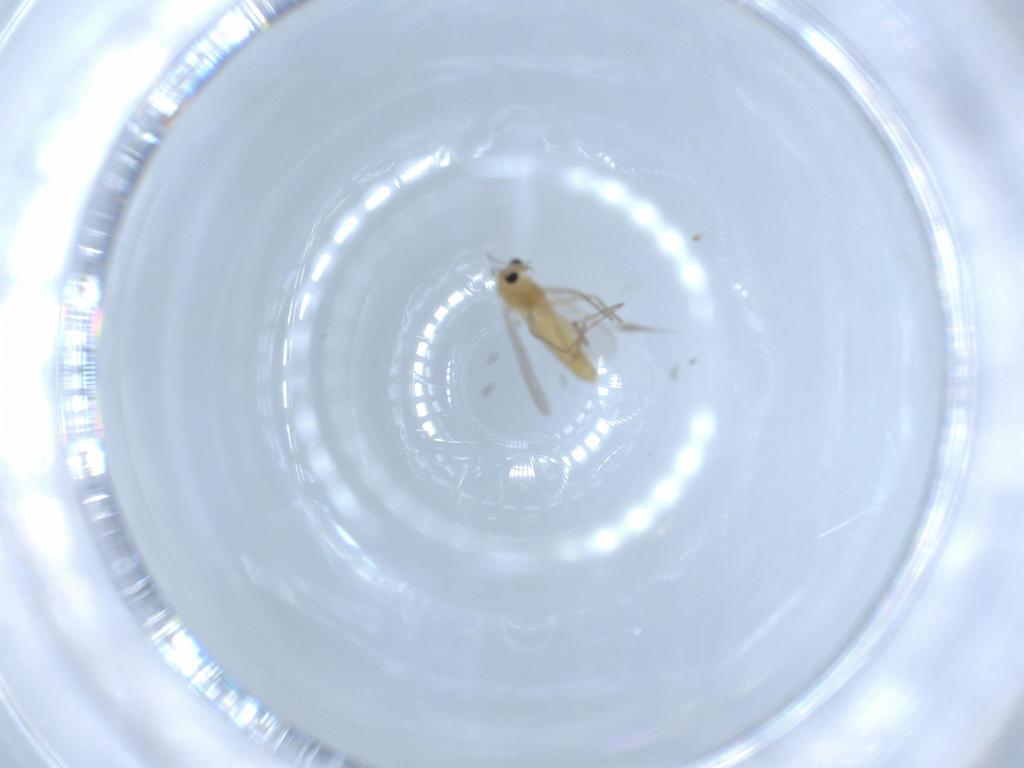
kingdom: Animalia
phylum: Arthropoda
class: Insecta
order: Diptera
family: Chironomidae
